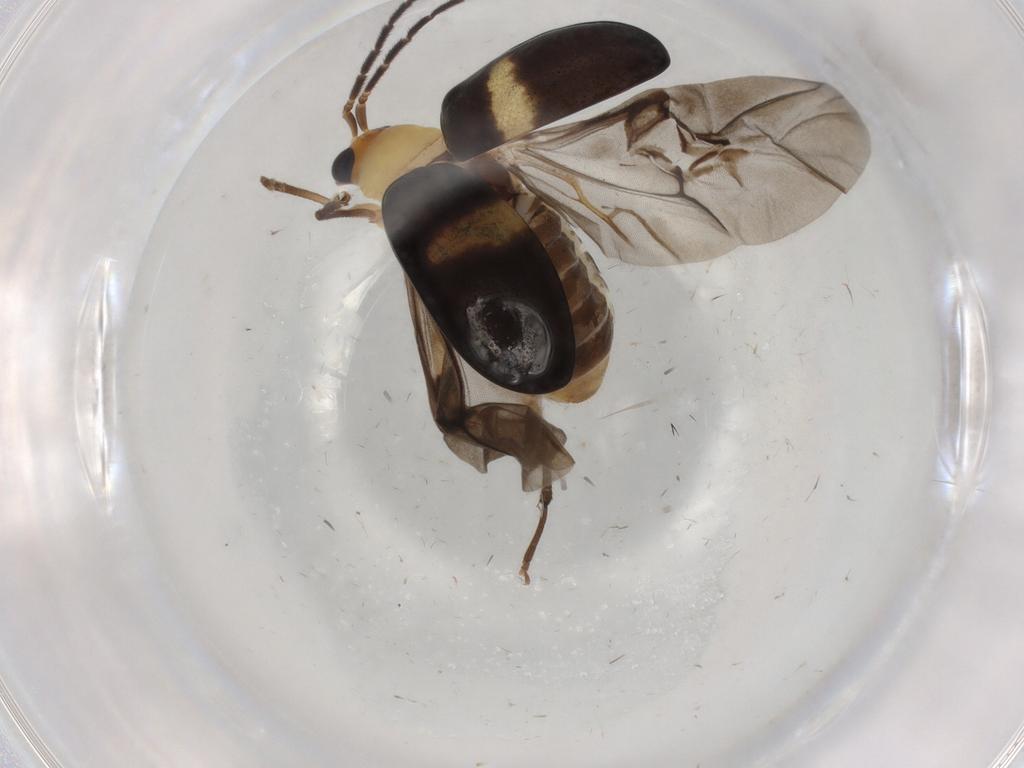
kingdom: Animalia
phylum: Arthropoda
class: Insecta
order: Coleoptera
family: Chrysomelidae
